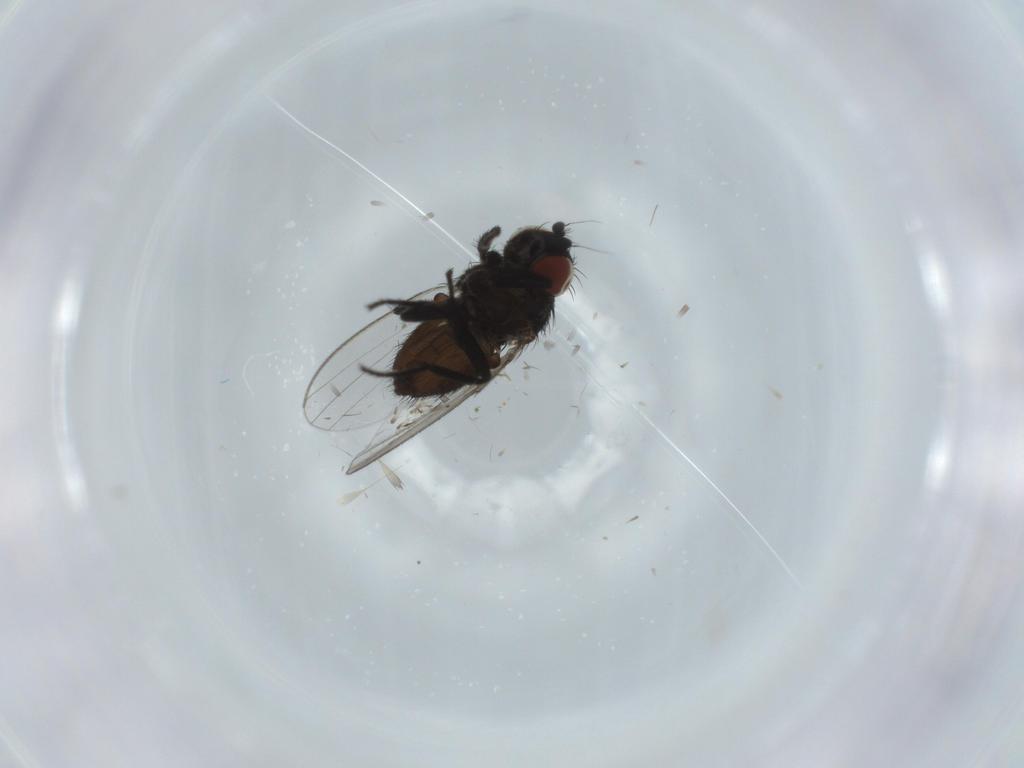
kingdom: Animalia
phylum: Arthropoda
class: Insecta
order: Diptera
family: Milichiidae
